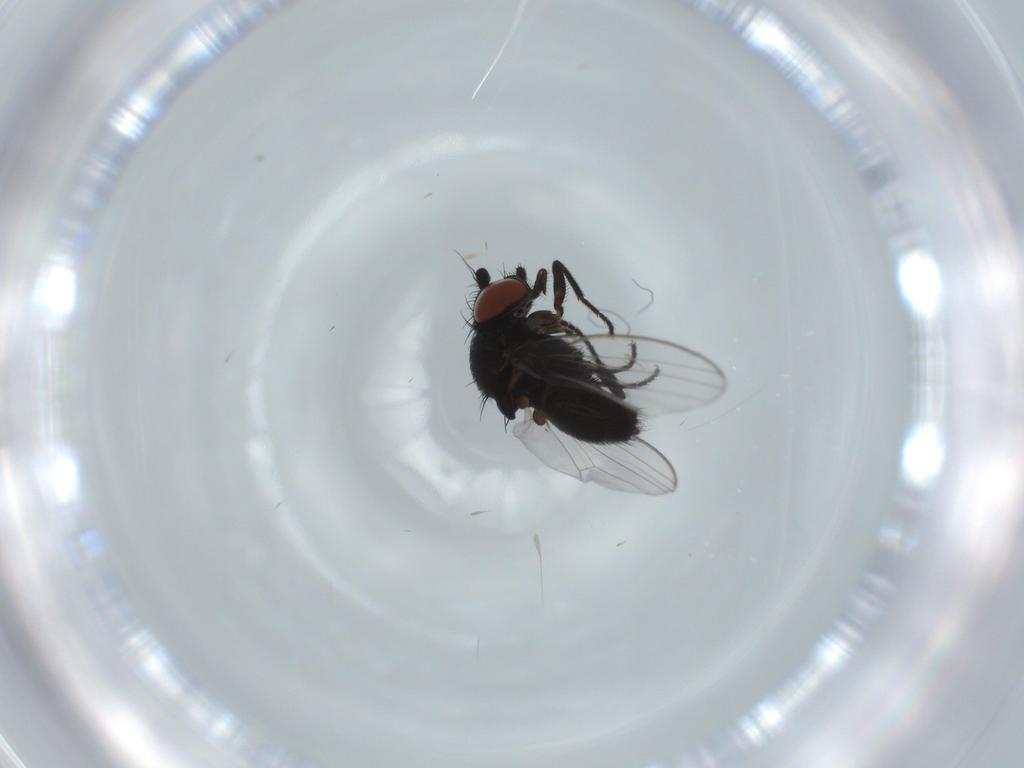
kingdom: Animalia
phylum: Arthropoda
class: Insecta
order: Diptera
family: Milichiidae
